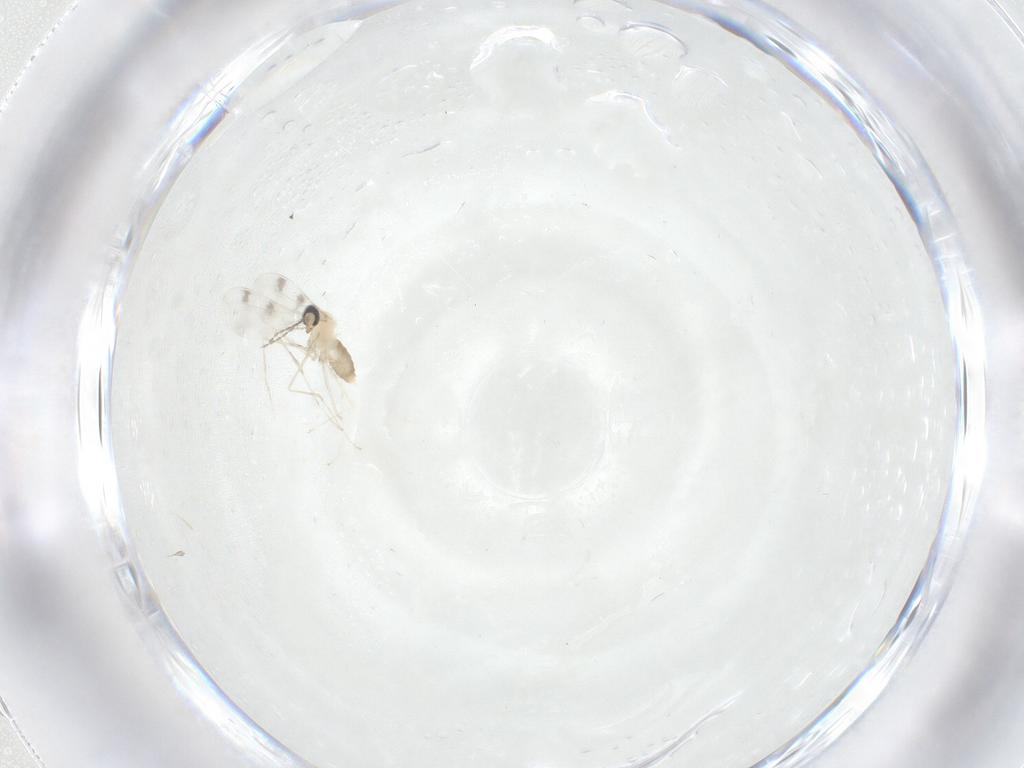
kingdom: Animalia
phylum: Arthropoda
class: Insecta
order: Diptera
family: Cecidomyiidae
